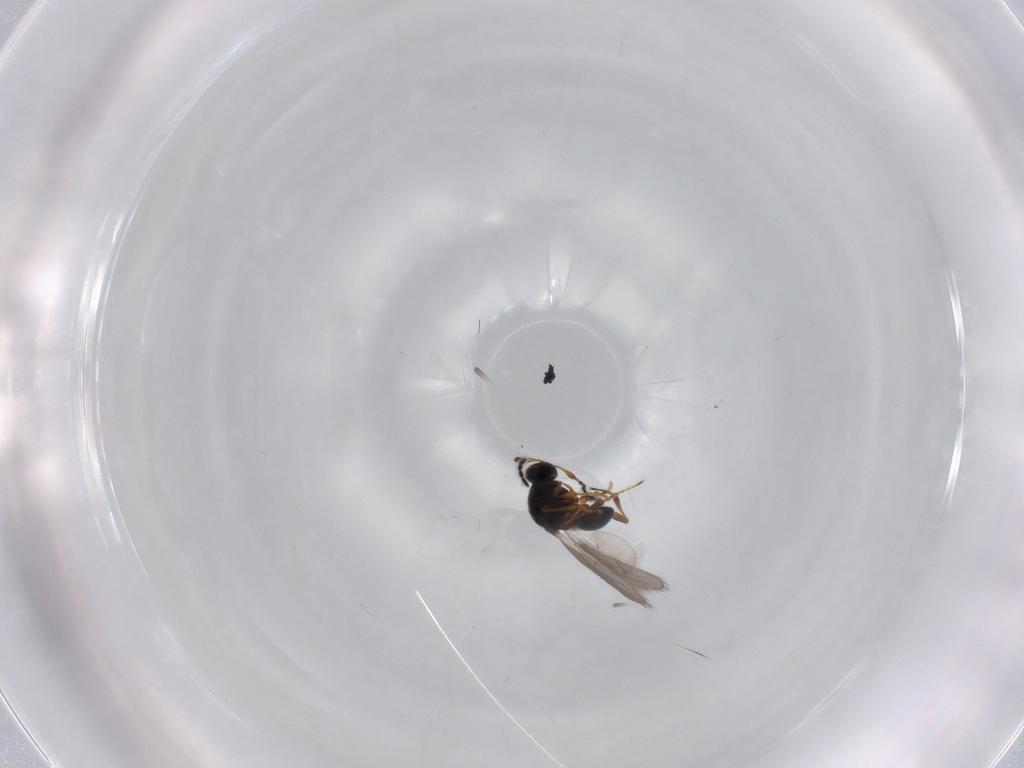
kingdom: Animalia
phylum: Arthropoda
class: Insecta
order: Hymenoptera
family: Platygastridae
